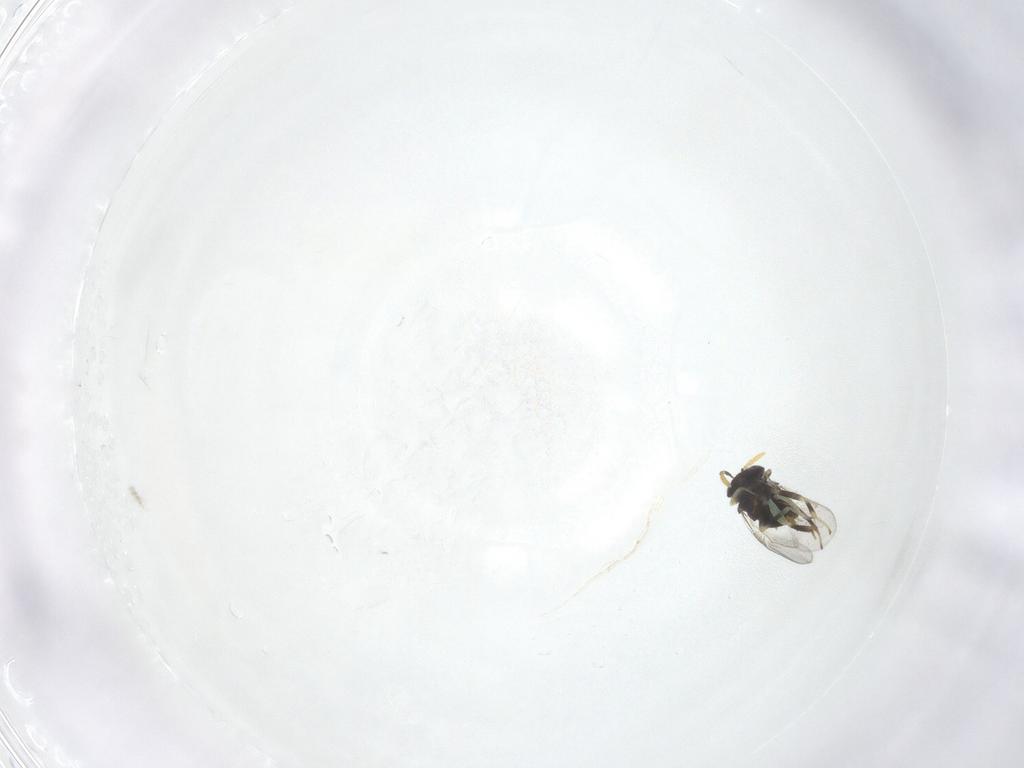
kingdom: Animalia
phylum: Arthropoda
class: Insecta
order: Hymenoptera
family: Aphelinidae
